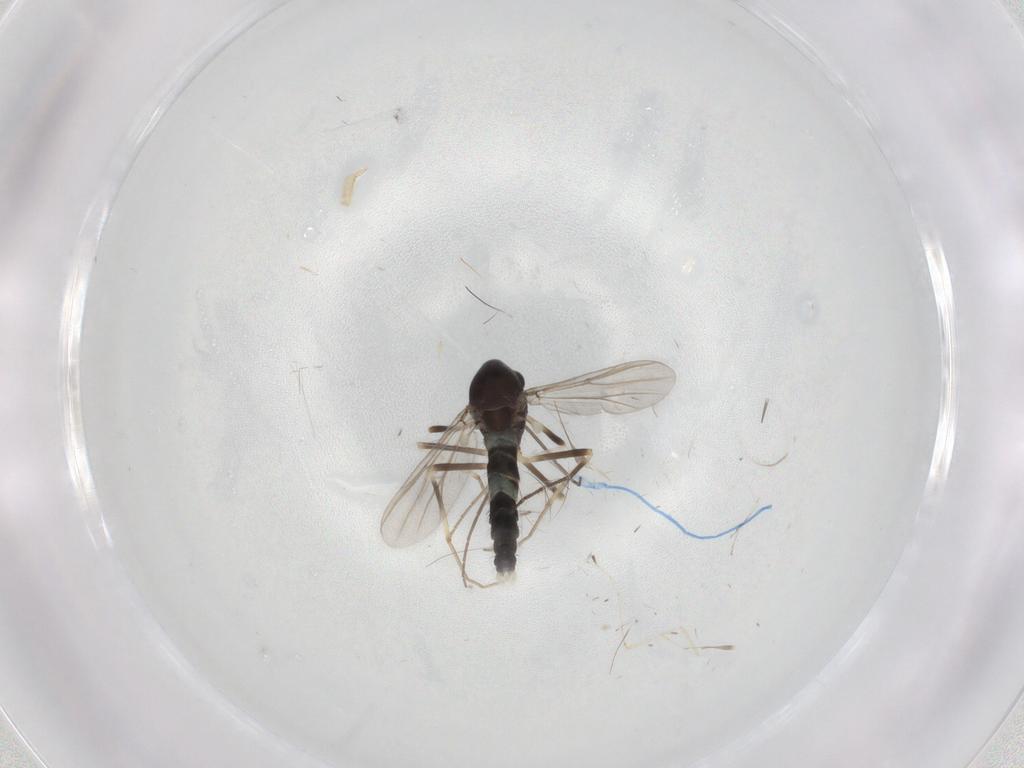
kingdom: Animalia
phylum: Arthropoda
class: Insecta
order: Diptera
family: Chironomidae
